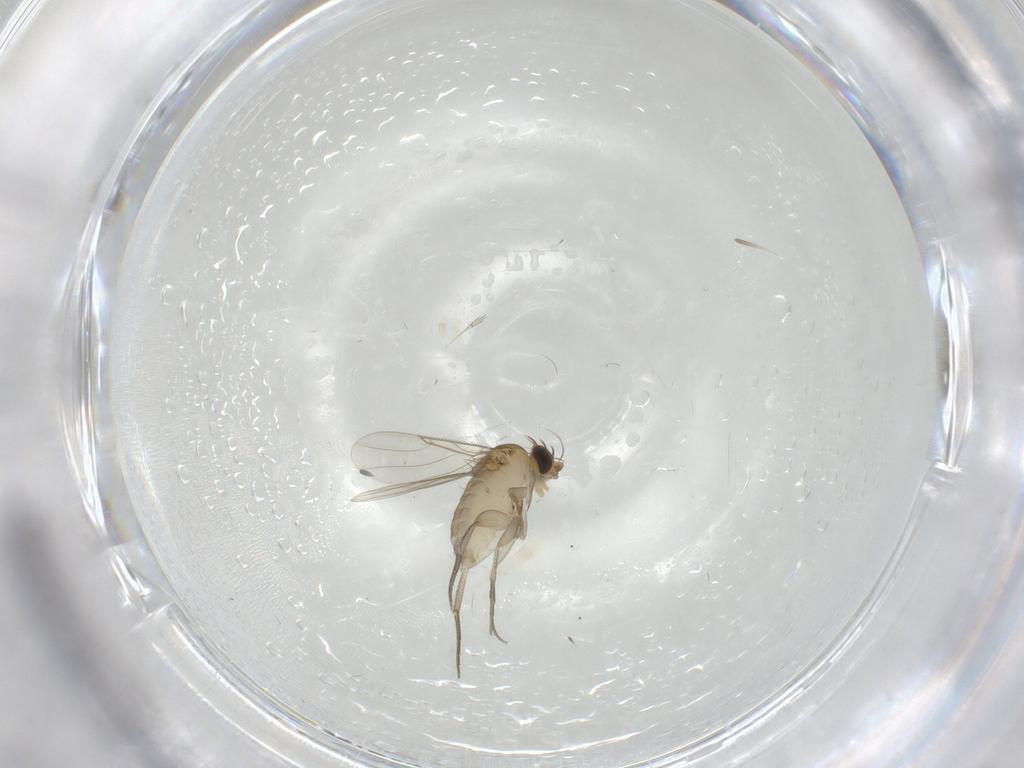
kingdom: Animalia
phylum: Arthropoda
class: Insecta
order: Diptera
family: Phoridae
